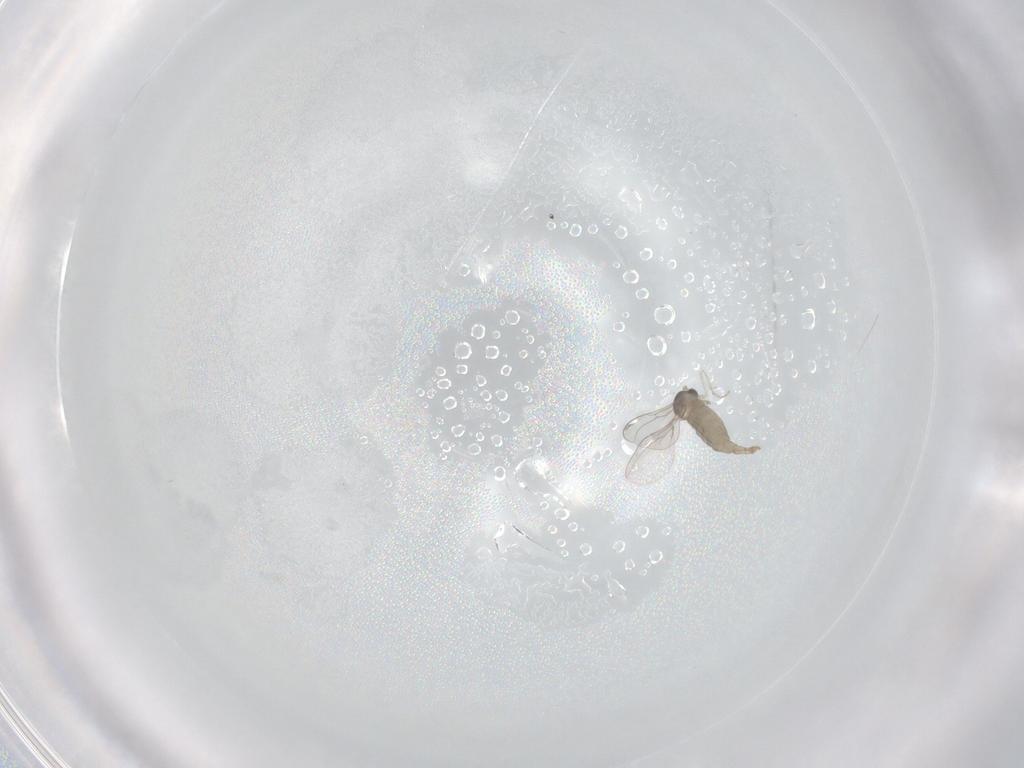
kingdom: Animalia
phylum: Arthropoda
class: Insecta
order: Diptera
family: Cecidomyiidae
